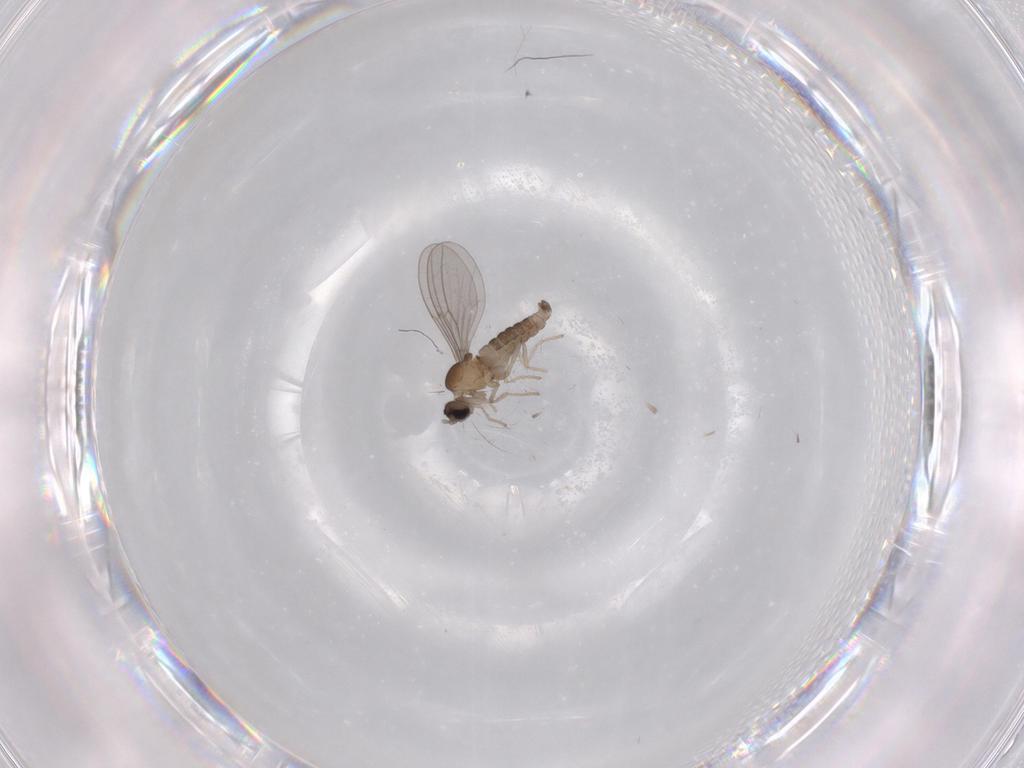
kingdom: Animalia
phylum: Arthropoda
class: Insecta
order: Diptera
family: Cecidomyiidae
